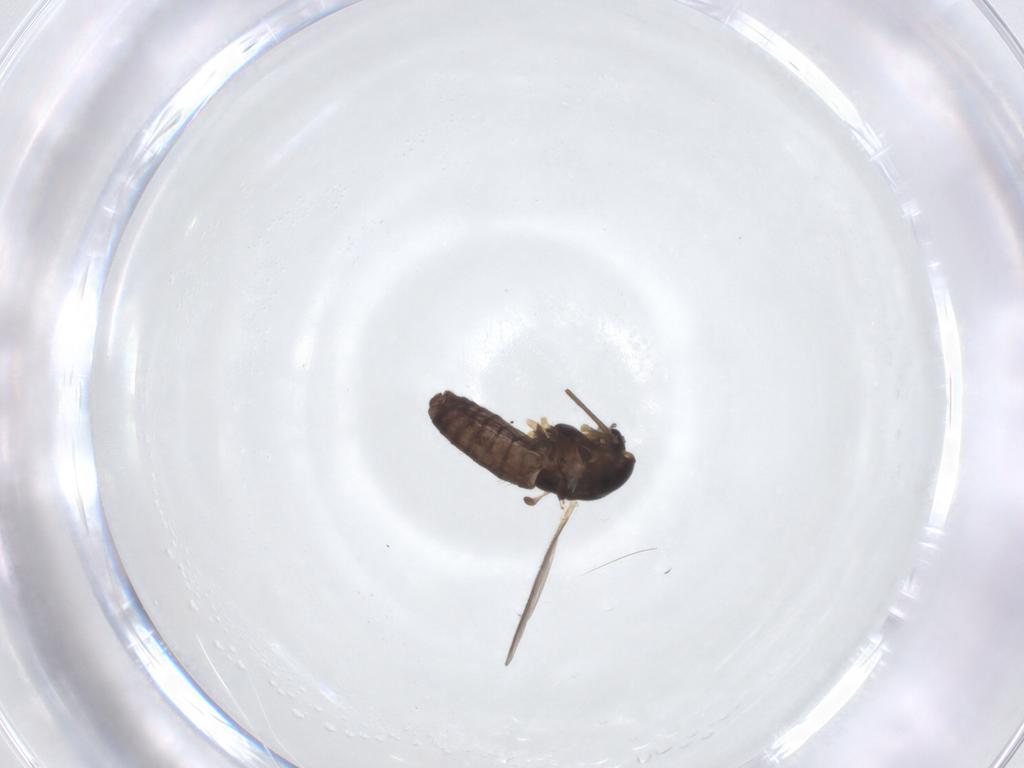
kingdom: Animalia
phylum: Arthropoda
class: Insecta
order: Diptera
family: Chironomidae
